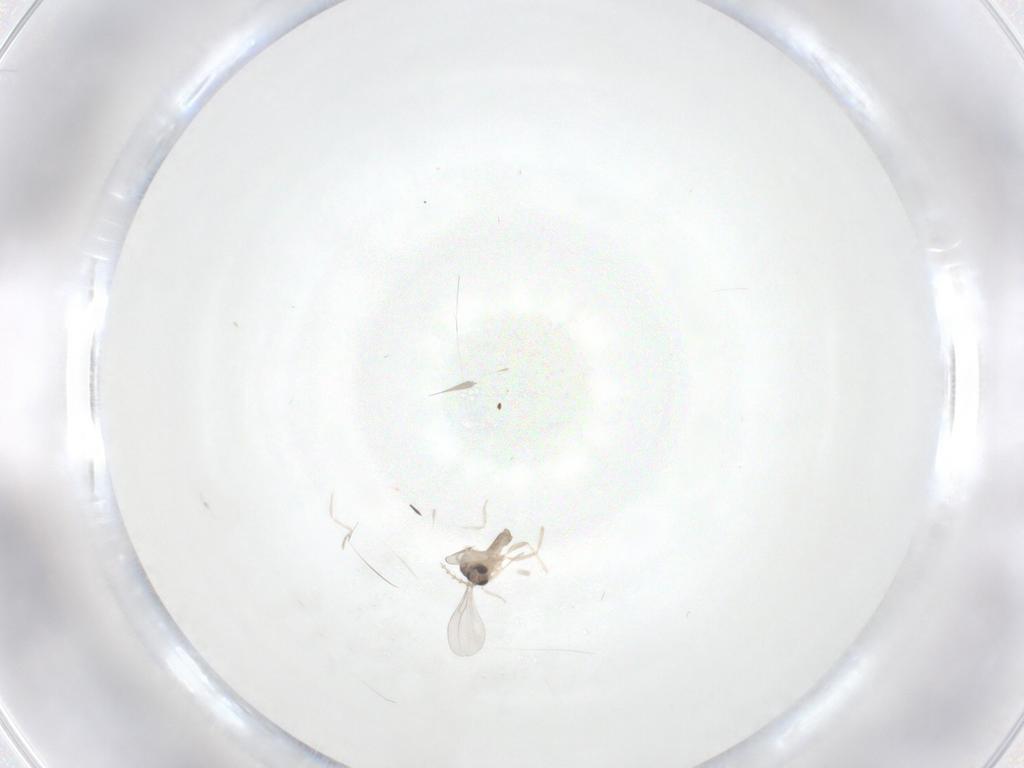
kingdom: Animalia
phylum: Arthropoda
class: Insecta
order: Diptera
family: Cecidomyiidae
